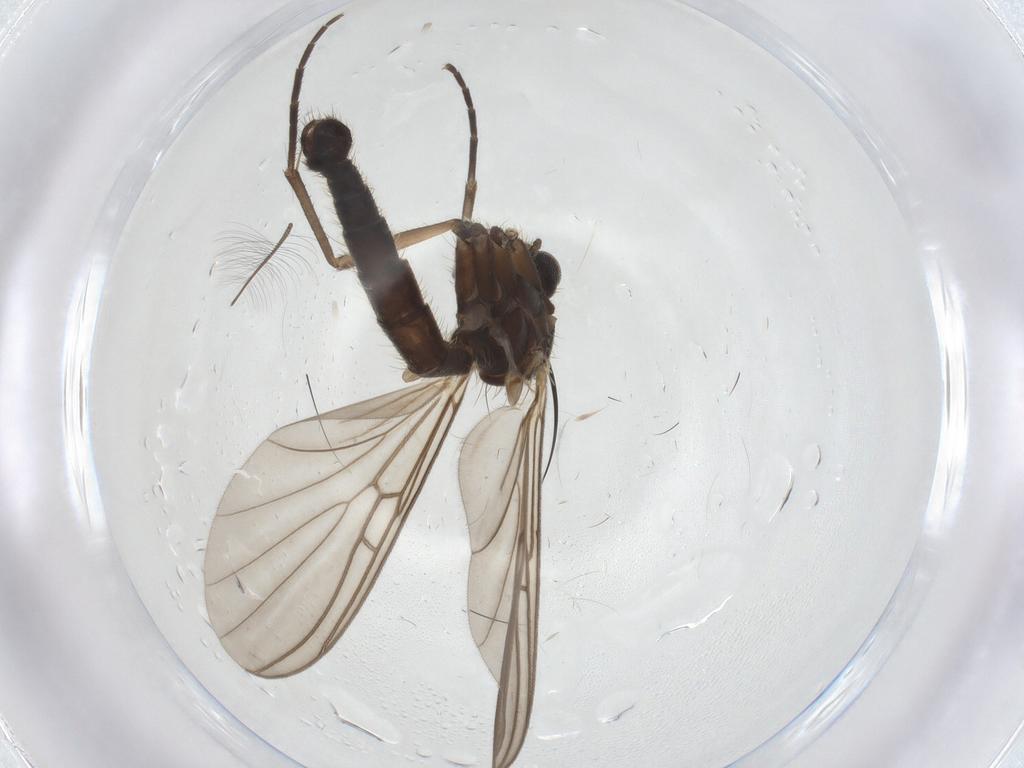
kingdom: Animalia
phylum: Arthropoda
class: Insecta
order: Diptera
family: Mycetophilidae
